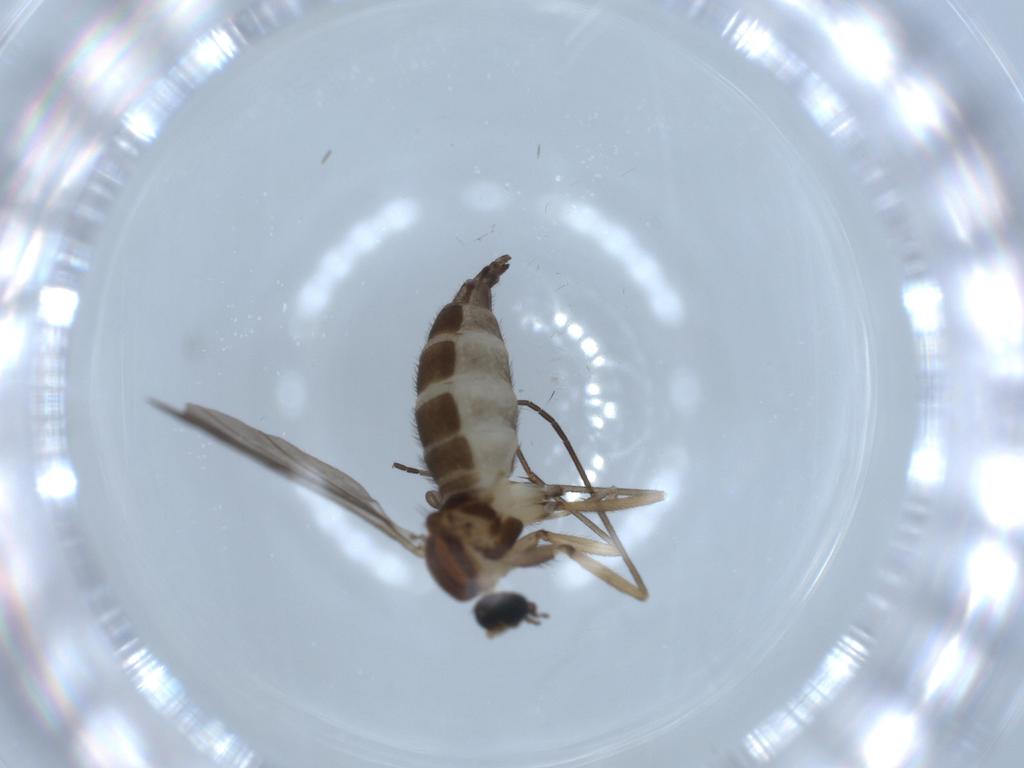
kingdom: Animalia
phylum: Arthropoda
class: Insecta
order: Diptera
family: Sciaridae
